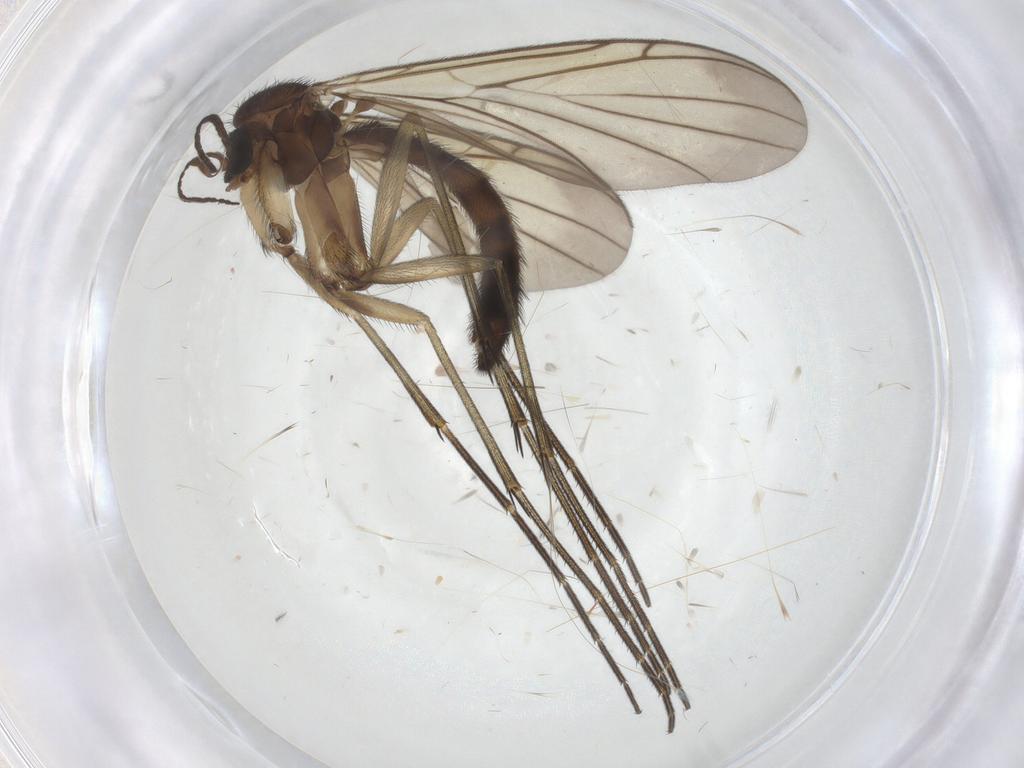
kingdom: Animalia
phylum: Arthropoda
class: Insecta
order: Diptera
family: Keroplatidae
